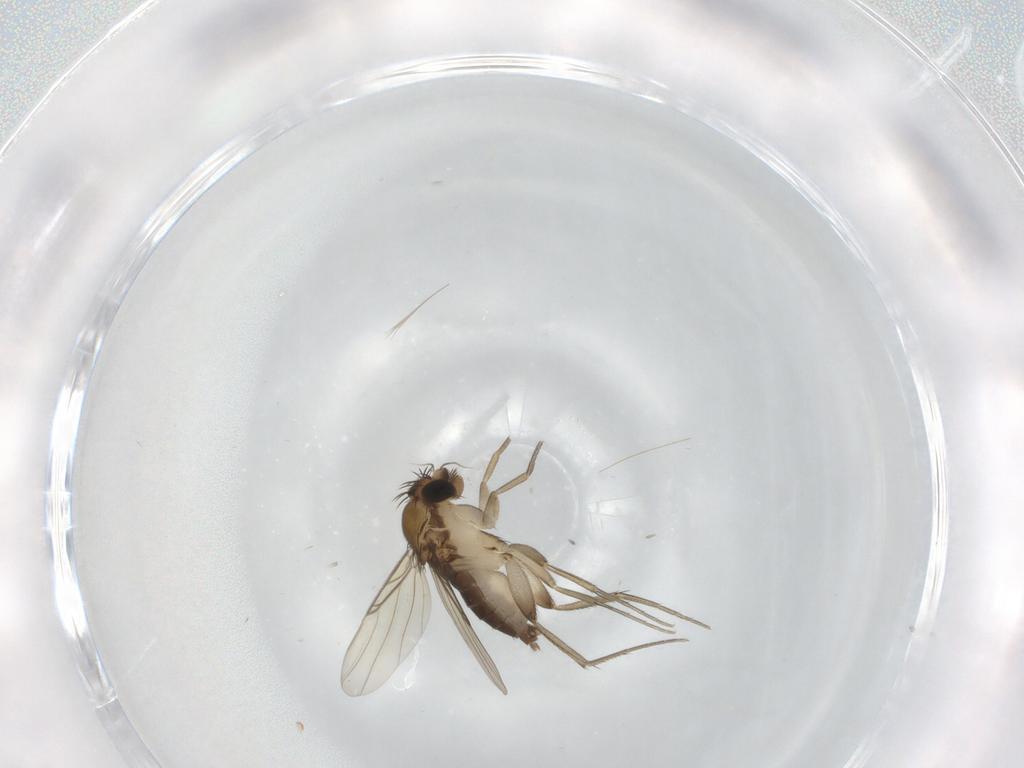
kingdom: Animalia
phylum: Arthropoda
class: Insecta
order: Diptera
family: Phoridae
